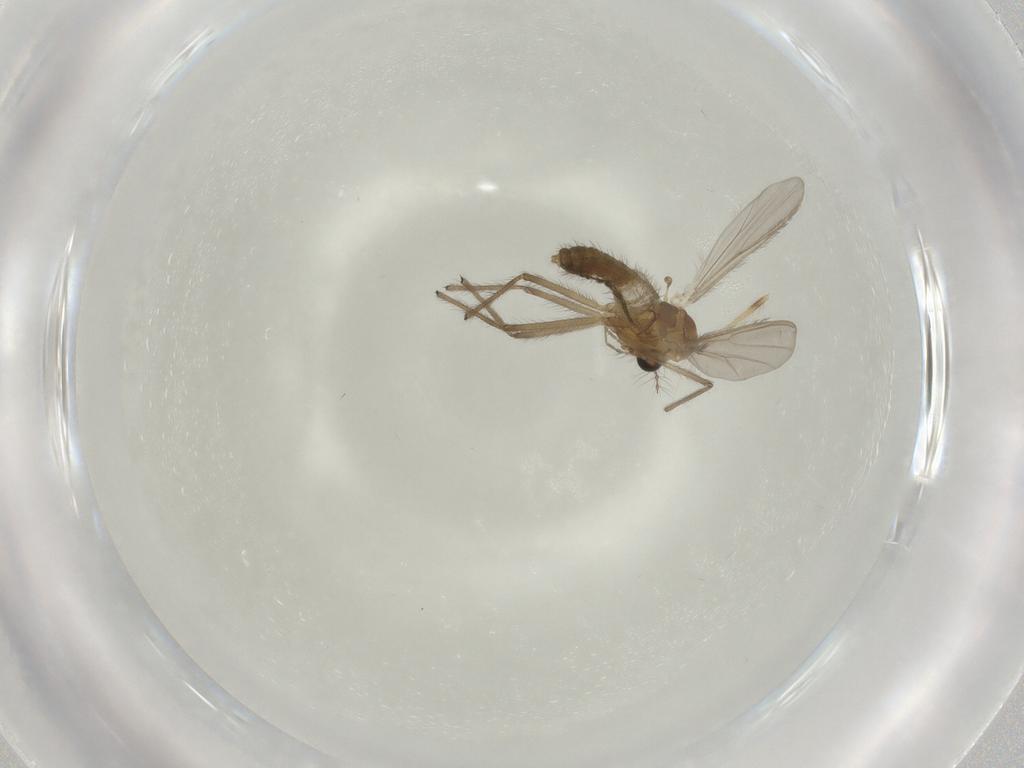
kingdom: Animalia
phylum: Arthropoda
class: Insecta
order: Diptera
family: Chironomidae
